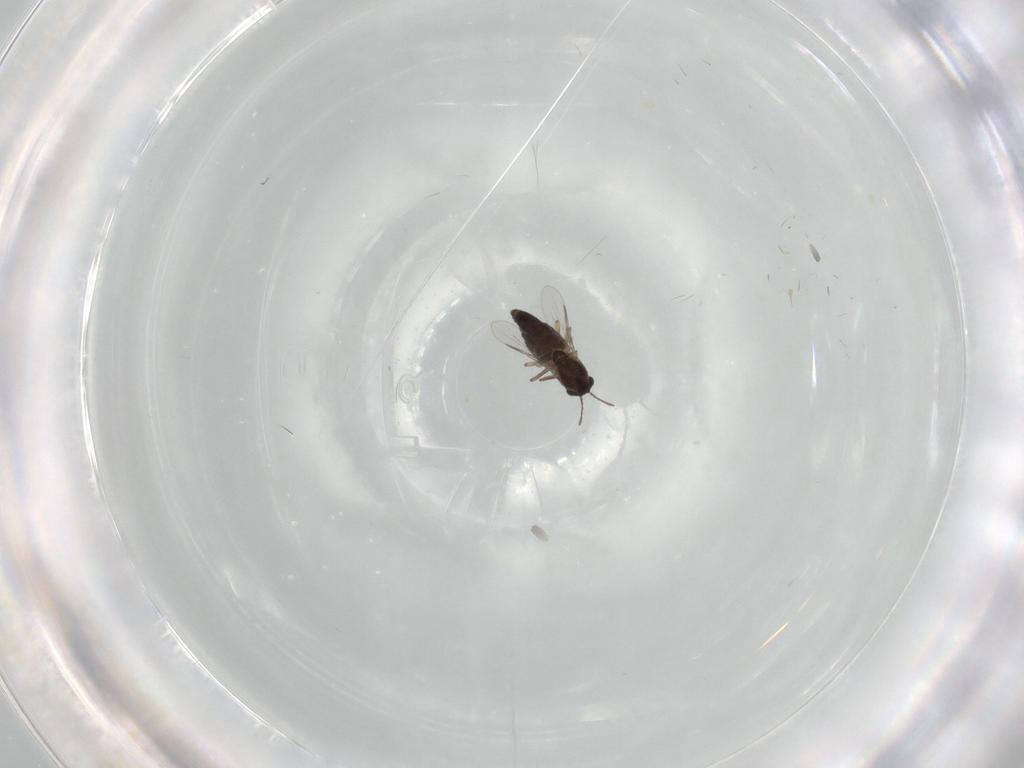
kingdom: Animalia
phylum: Arthropoda
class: Insecta
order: Diptera
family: Chironomidae
